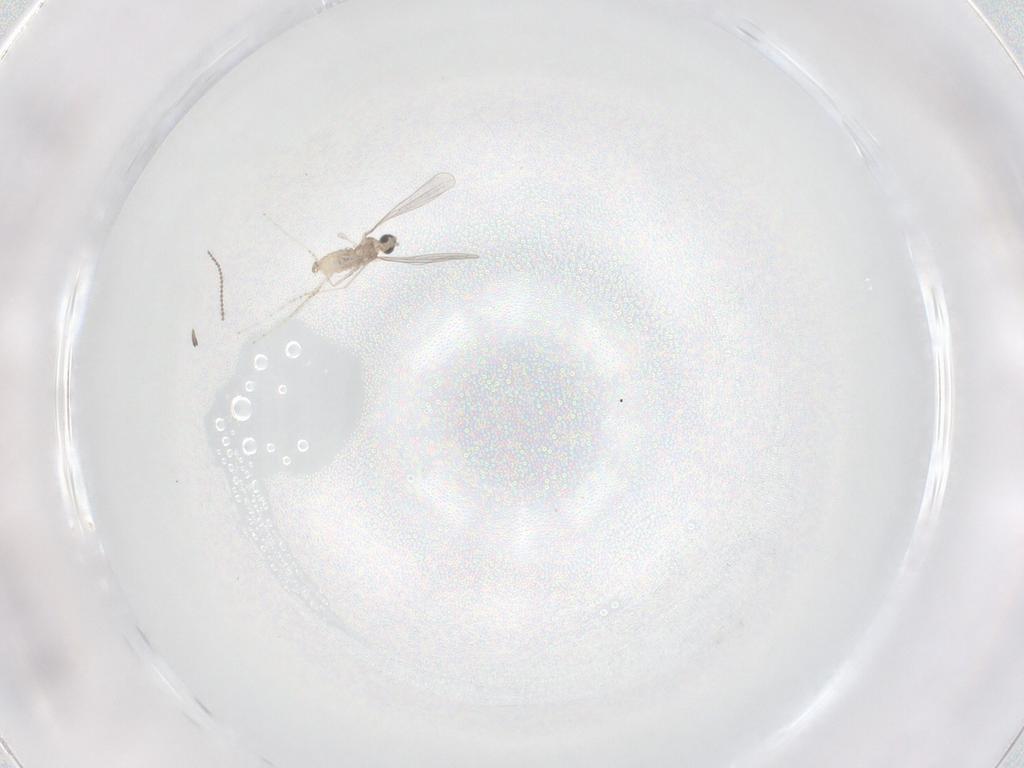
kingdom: Animalia
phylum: Arthropoda
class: Insecta
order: Diptera
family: Cecidomyiidae
